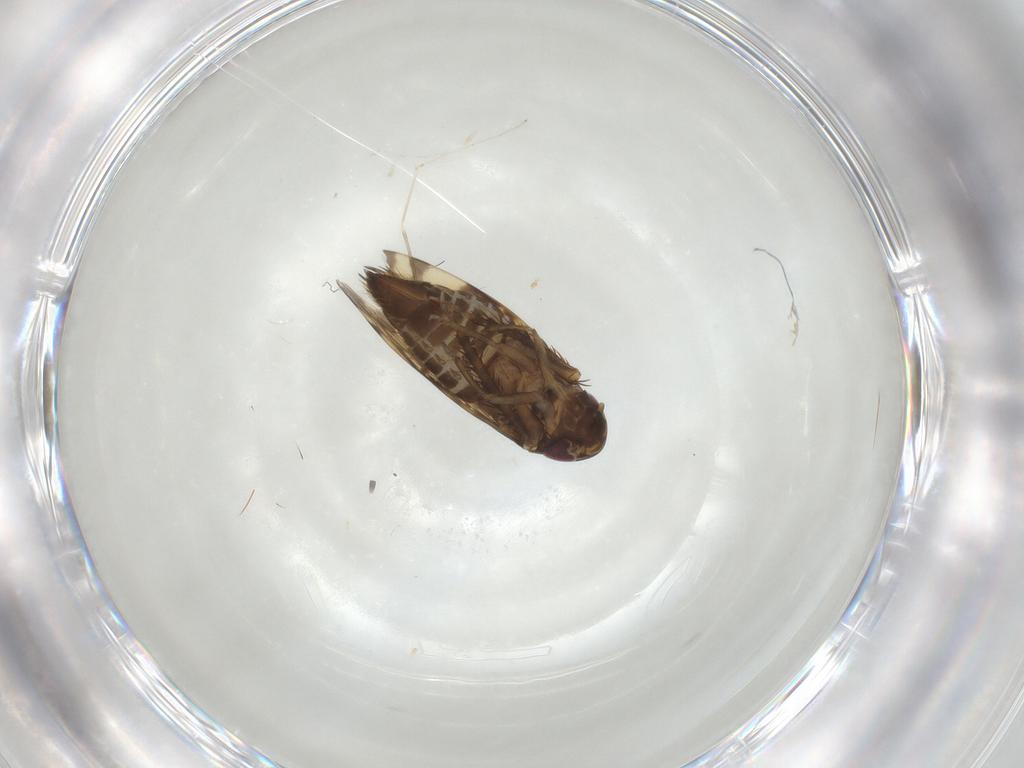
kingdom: Animalia
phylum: Arthropoda
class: Insecta
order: Hemiptera
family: Cicadellidae
